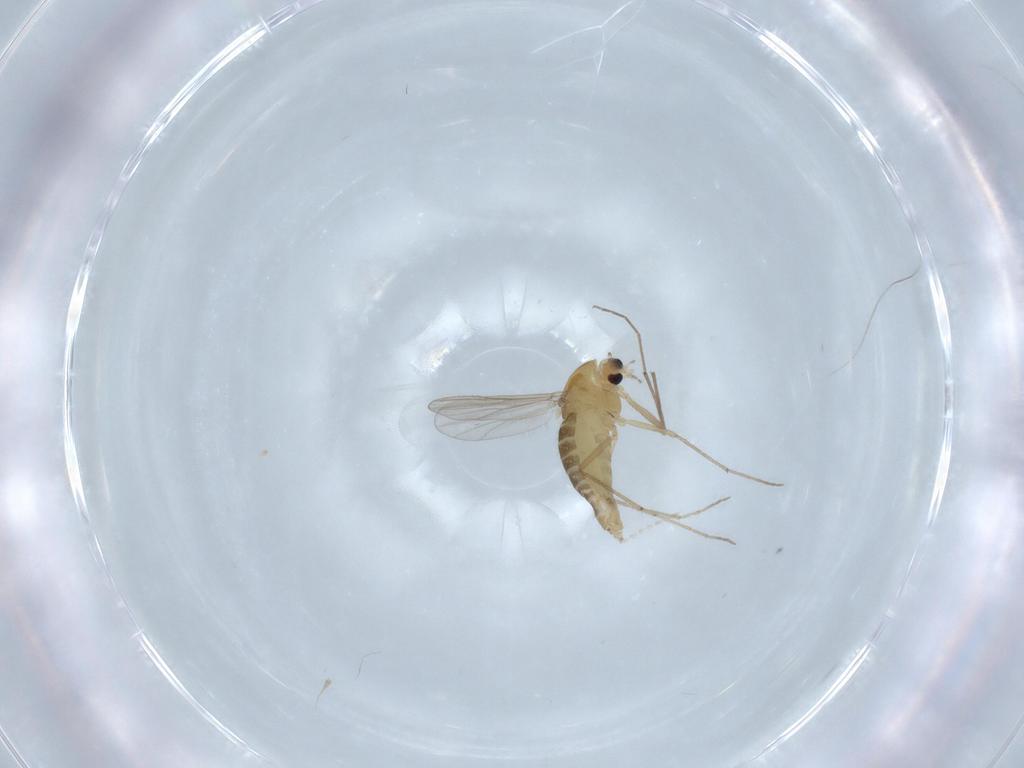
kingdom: Animalia
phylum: Arthropoda
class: Insecta
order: Diptera
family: Chironomidae
